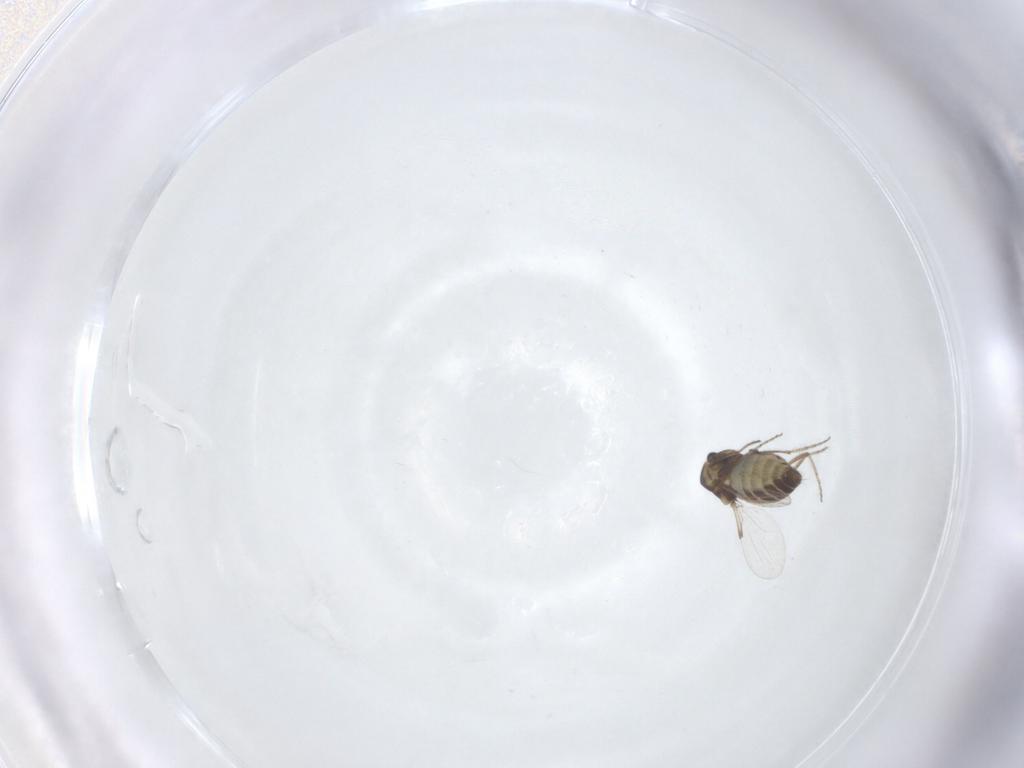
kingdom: Animalia
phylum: Arthropoda
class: Insecta
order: Diptera
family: Ceratopogonidae
